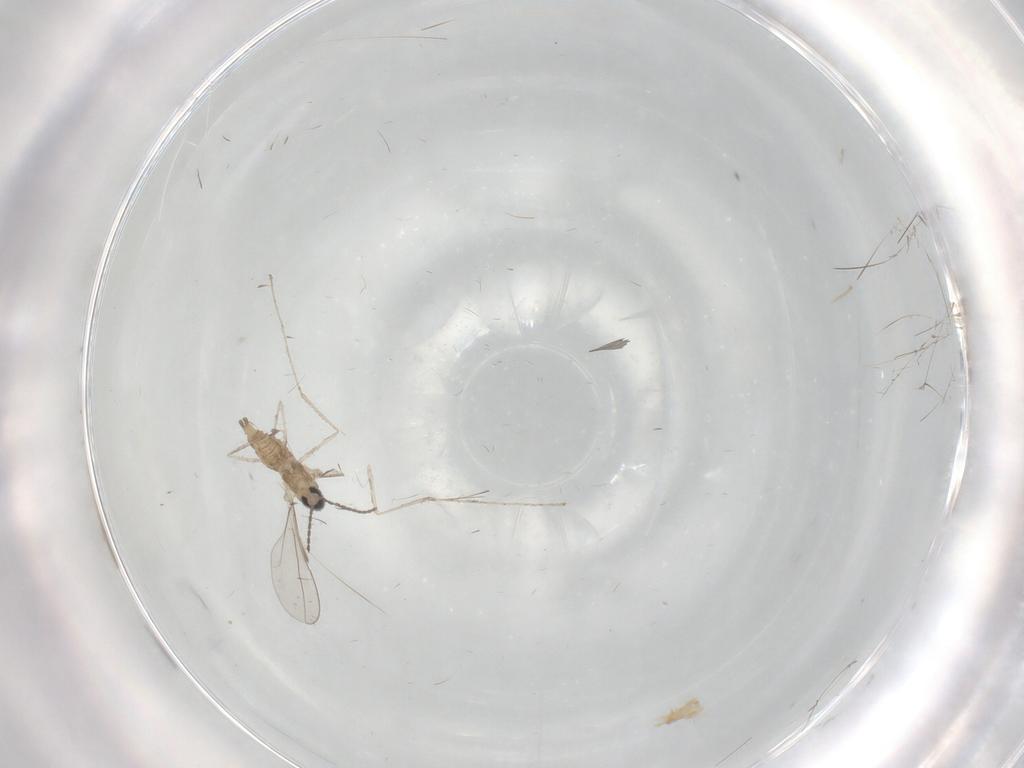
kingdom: Animalia
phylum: Arthropoda
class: Insecta
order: Diptera
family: Cecidomyiidae
